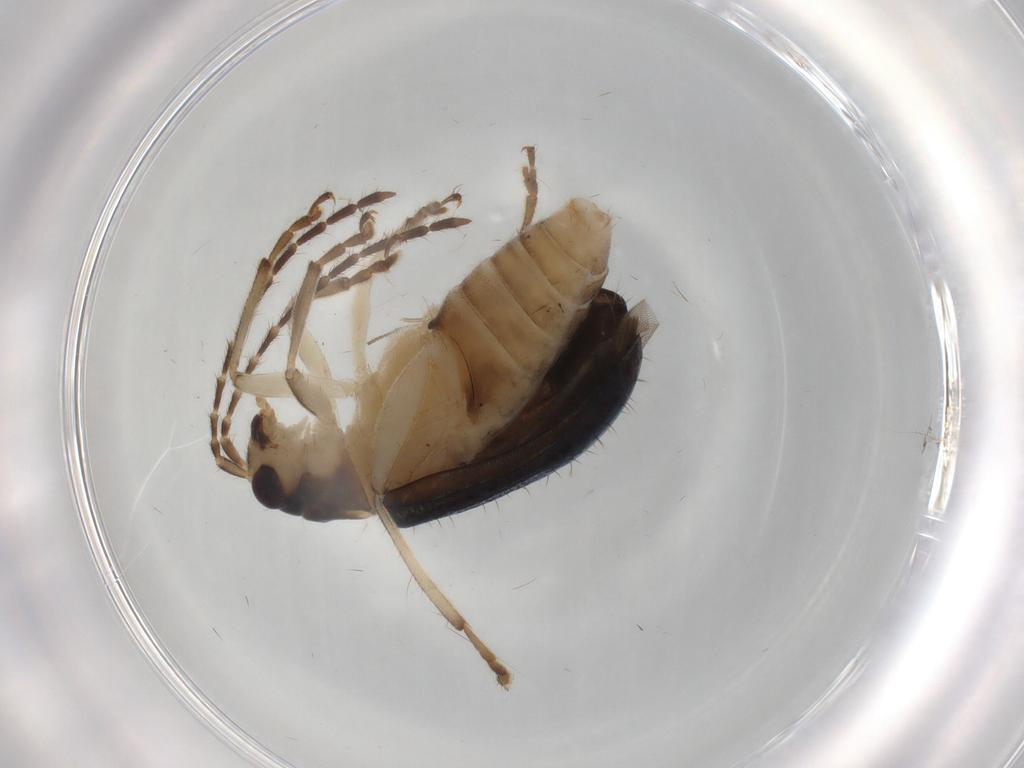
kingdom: Animalia
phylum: Arthropoda
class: Insecta
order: Coleoptera
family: Chrysomelidae
